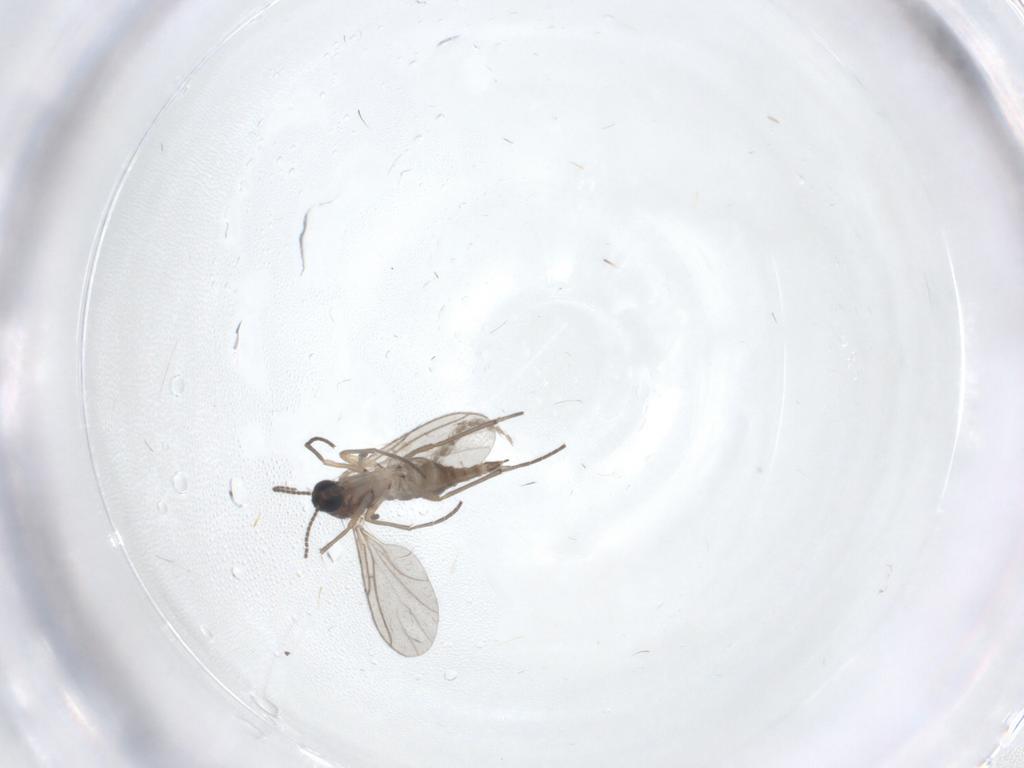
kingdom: Animalia
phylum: Arthropoda
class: Insecta
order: Diptera
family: Sciaridae
